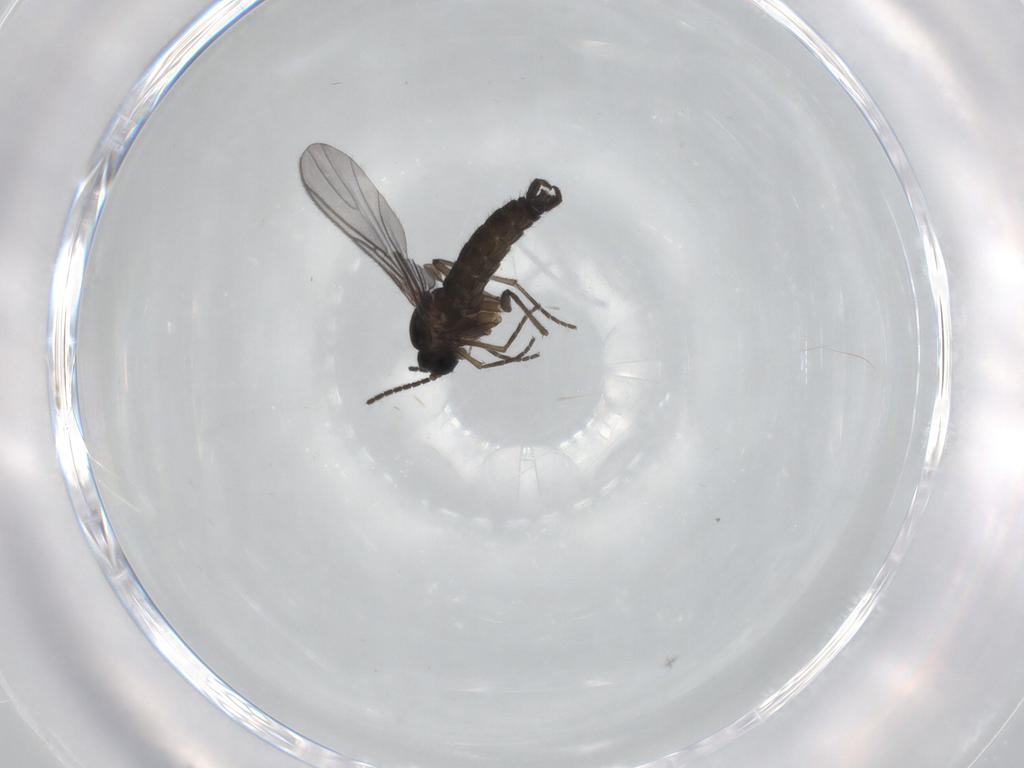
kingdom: Animalia
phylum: Arthropoda
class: Insecta
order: Diptera
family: Sciaridae
